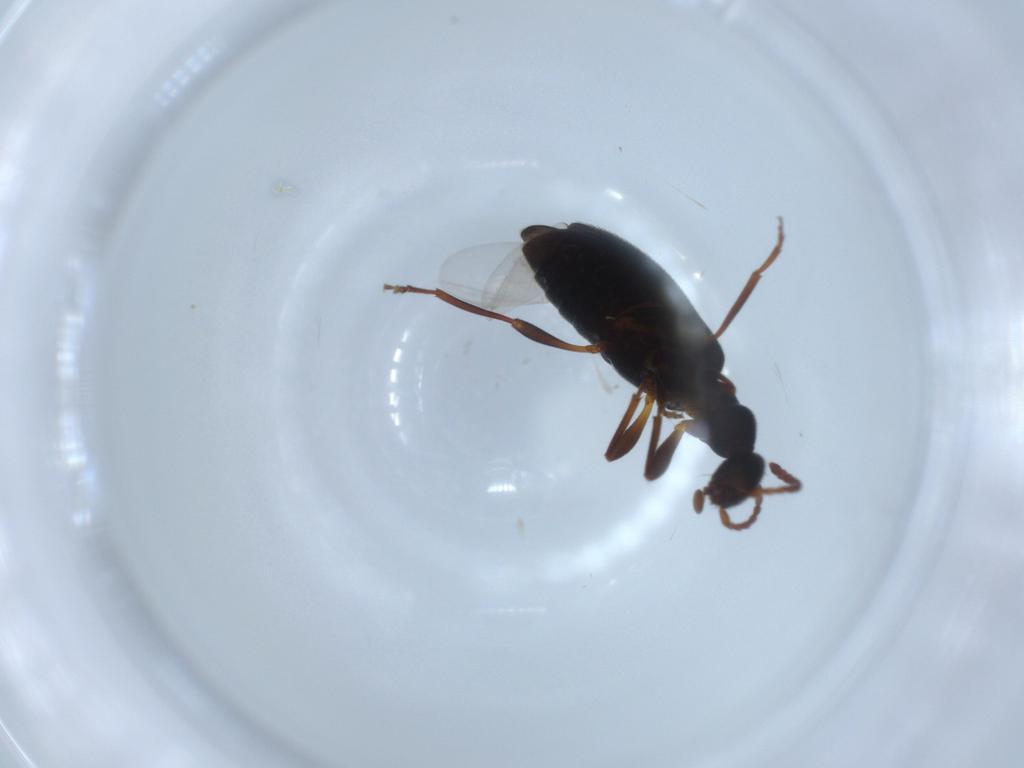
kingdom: Animalia
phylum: Arthropoda
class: Insecta
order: Coleoptera
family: Anthicidae
